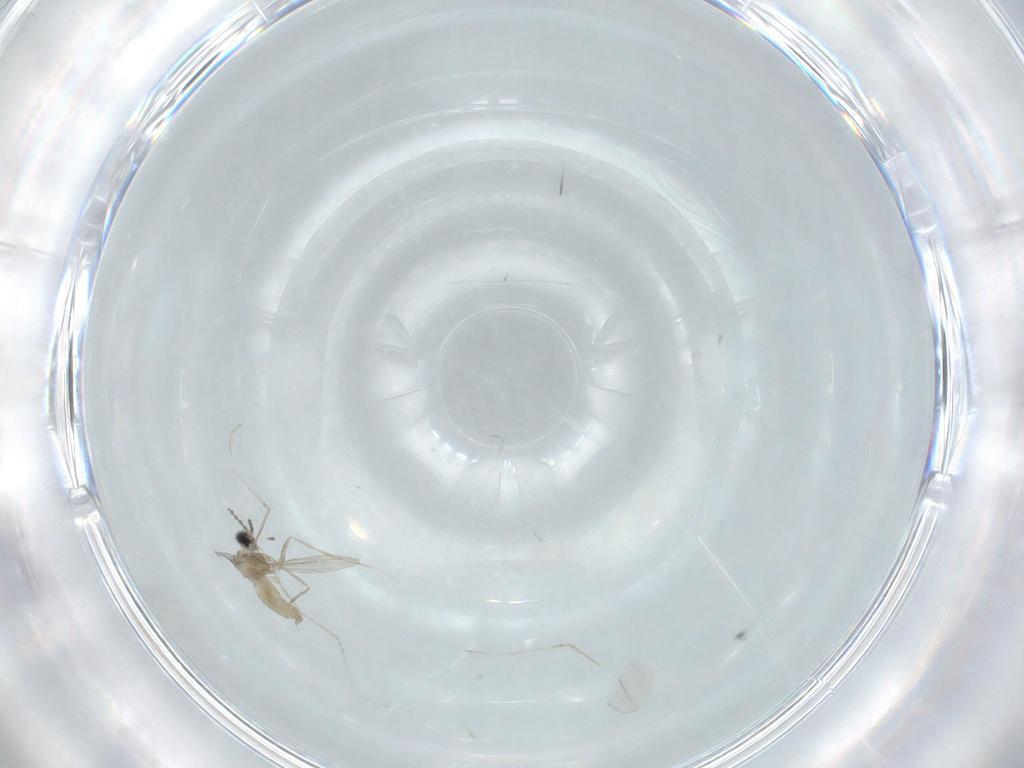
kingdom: Animalia
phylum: Arthropoda
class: Insecta
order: Diptera
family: Cecidomyiidae
